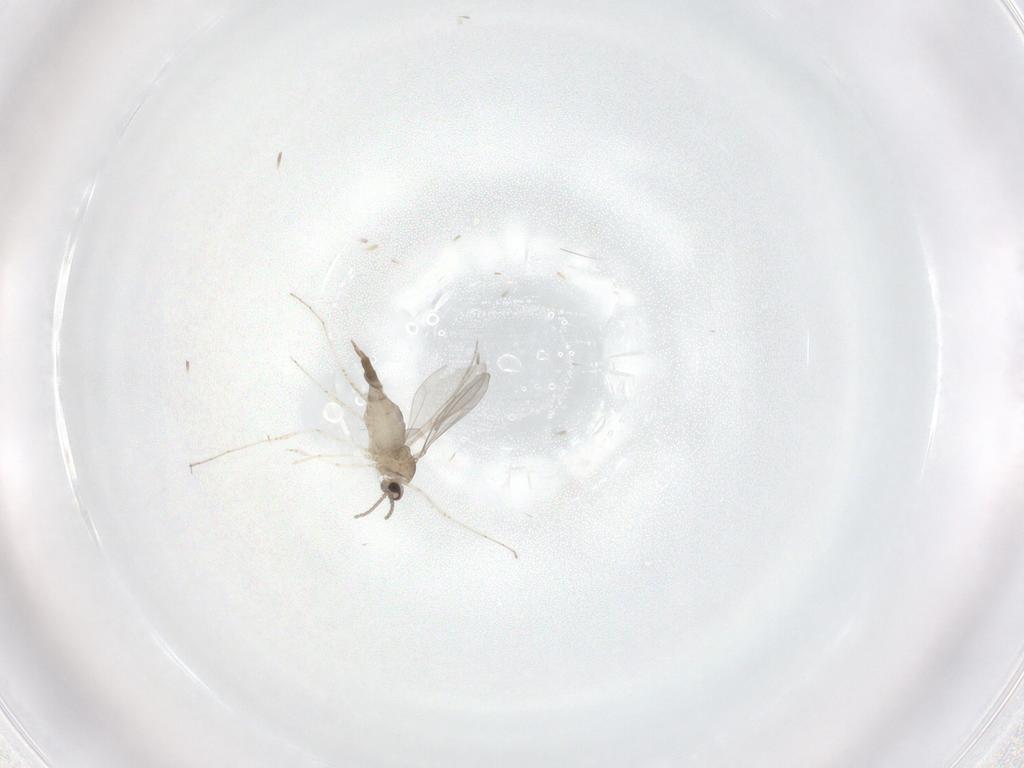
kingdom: Animalia
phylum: Arthropoda
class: Insecta
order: Diptera
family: Cecidomyiidae
